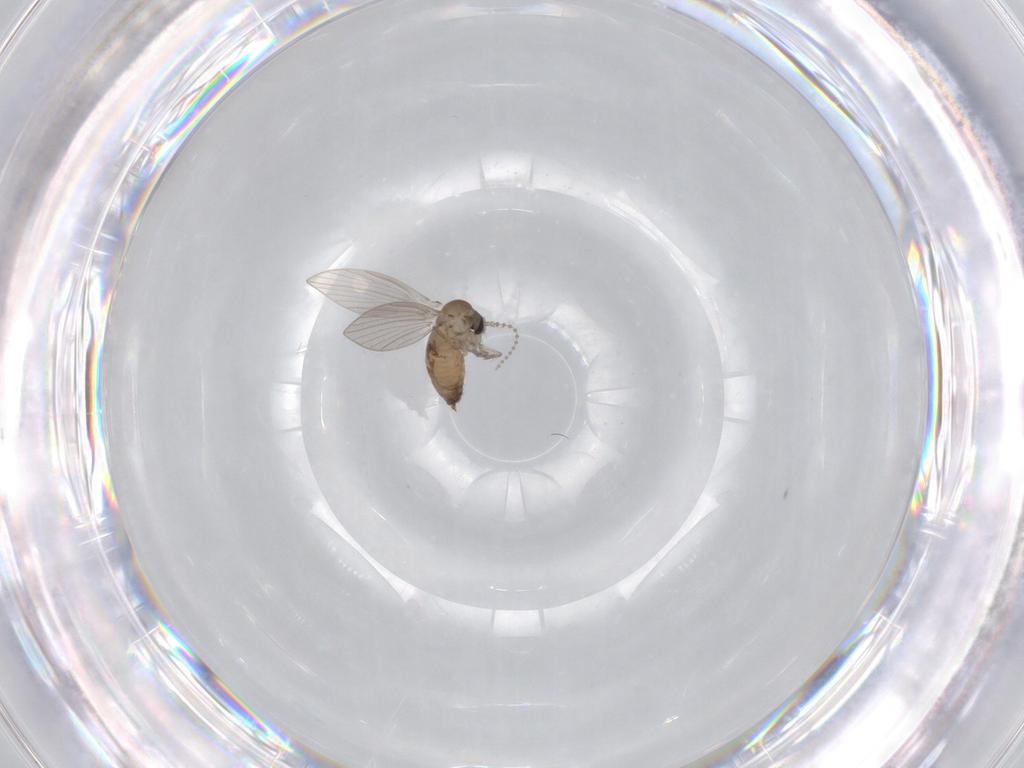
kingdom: Animalia
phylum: Arthropoda
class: Insecta
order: Diptera
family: Psychodidae
